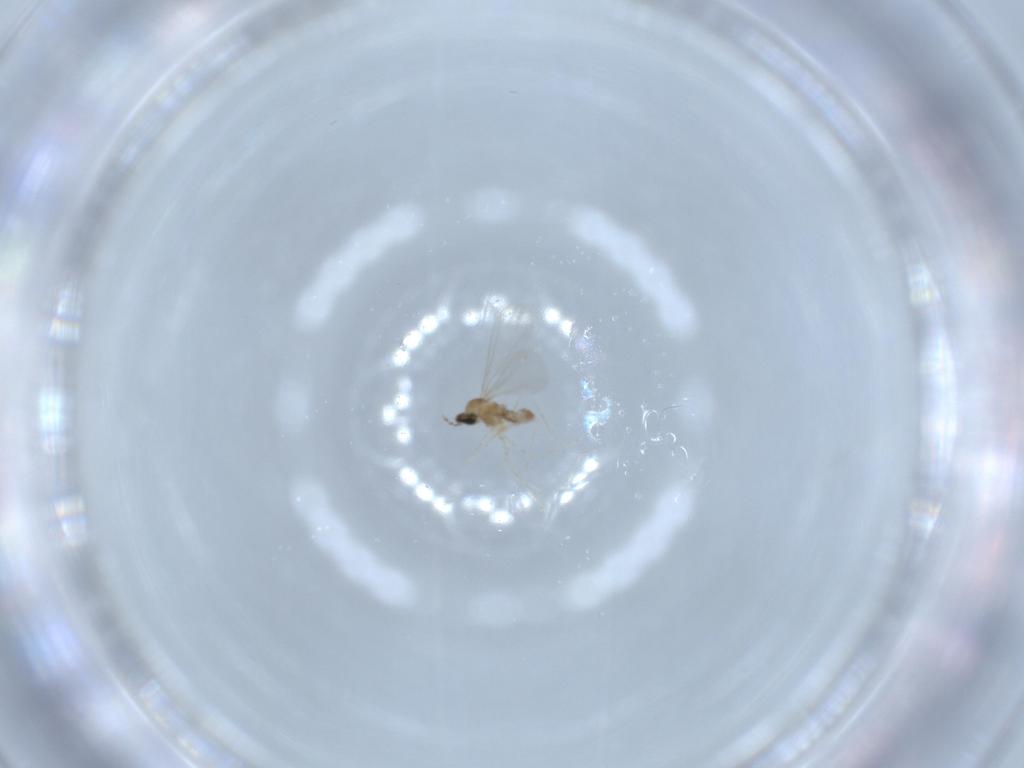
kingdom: Animalia
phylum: Arthropoda
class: Insecta
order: Diptera
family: Cecidomyiidae
